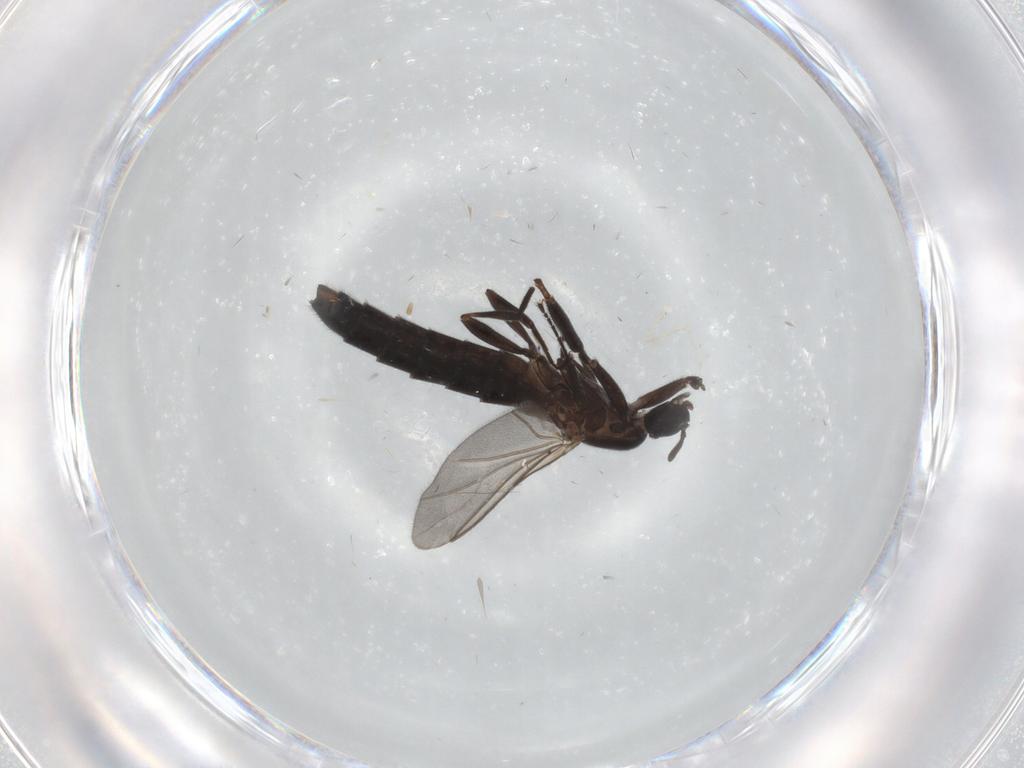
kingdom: Animalia
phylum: Arthropoda
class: Insecta
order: Diptera
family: Scatopsidae
